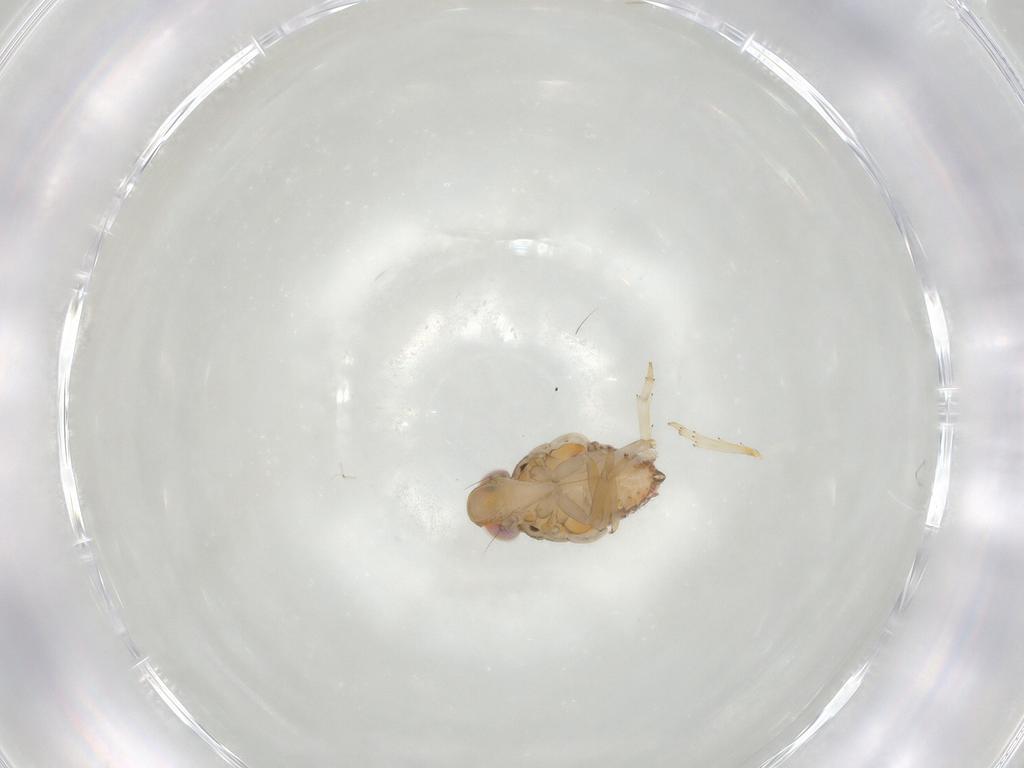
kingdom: Animalia
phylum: Arthropoda
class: Insecta
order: Hemiptera
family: Issidae
